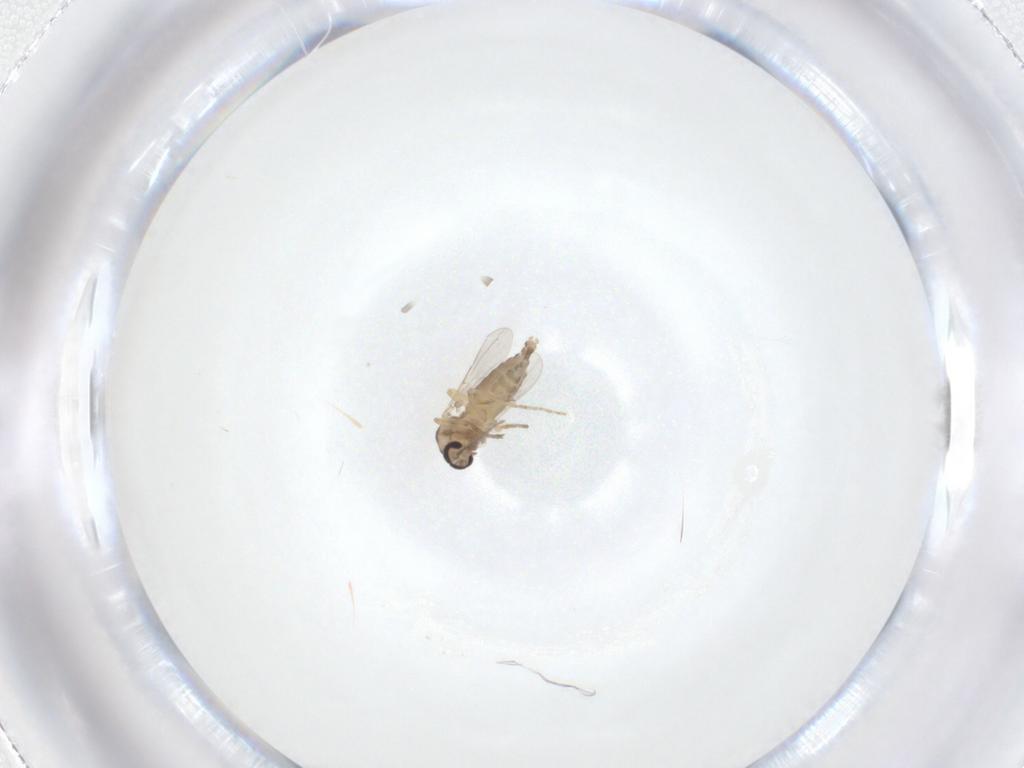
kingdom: Animalia
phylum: Arthropoda
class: Insecta
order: Diptera
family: Ceratopogonidae
